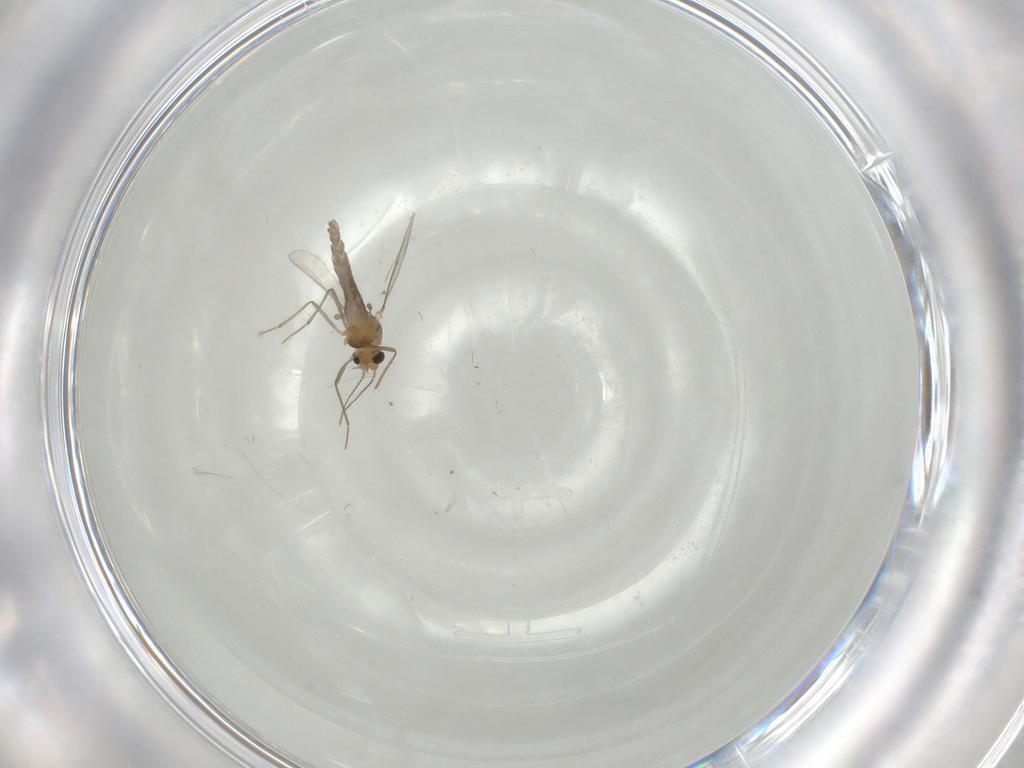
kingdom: Animalia
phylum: Arthropoda
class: Insecta
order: Diptera
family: Chironomidae
